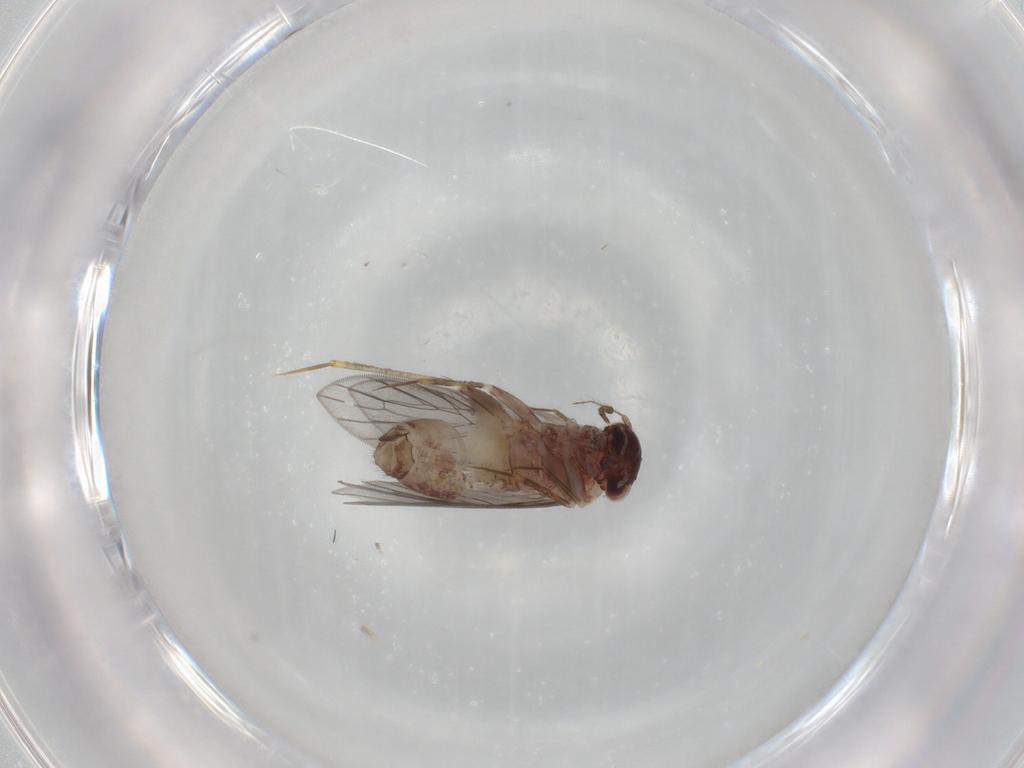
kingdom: Animalia
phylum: Arthropoda
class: Insecta
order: Psocodea
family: Lepidopsocidae
